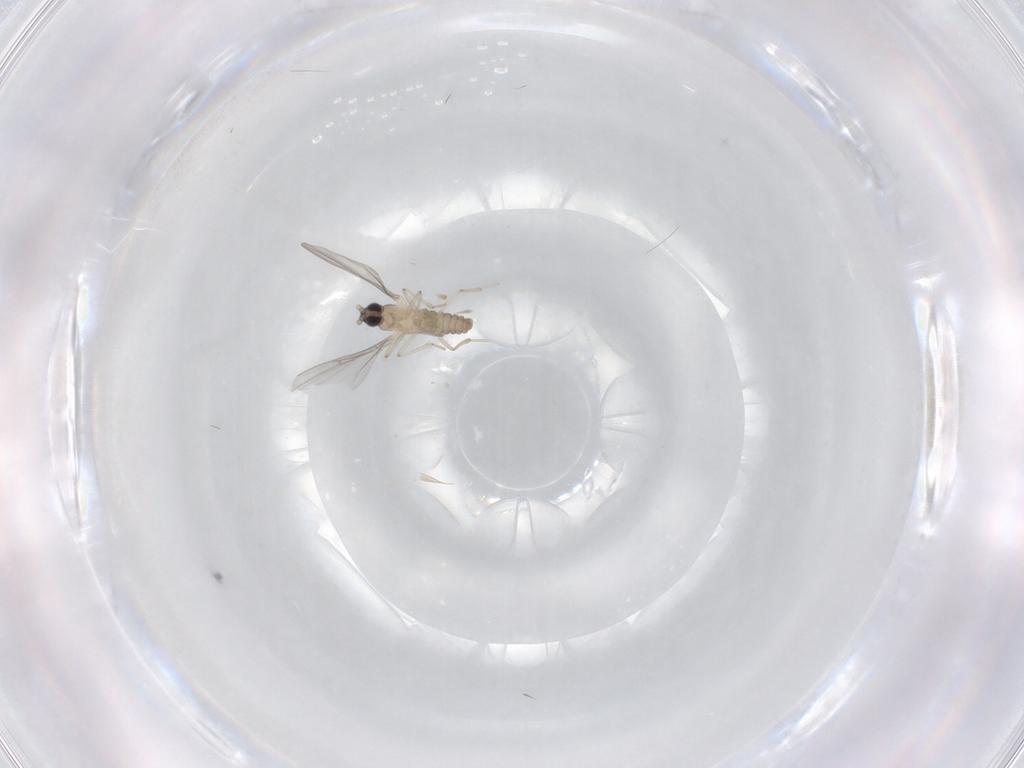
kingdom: Animalia
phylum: Arthropoda
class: Insecta
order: Diptera
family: Cecidomyiidae
